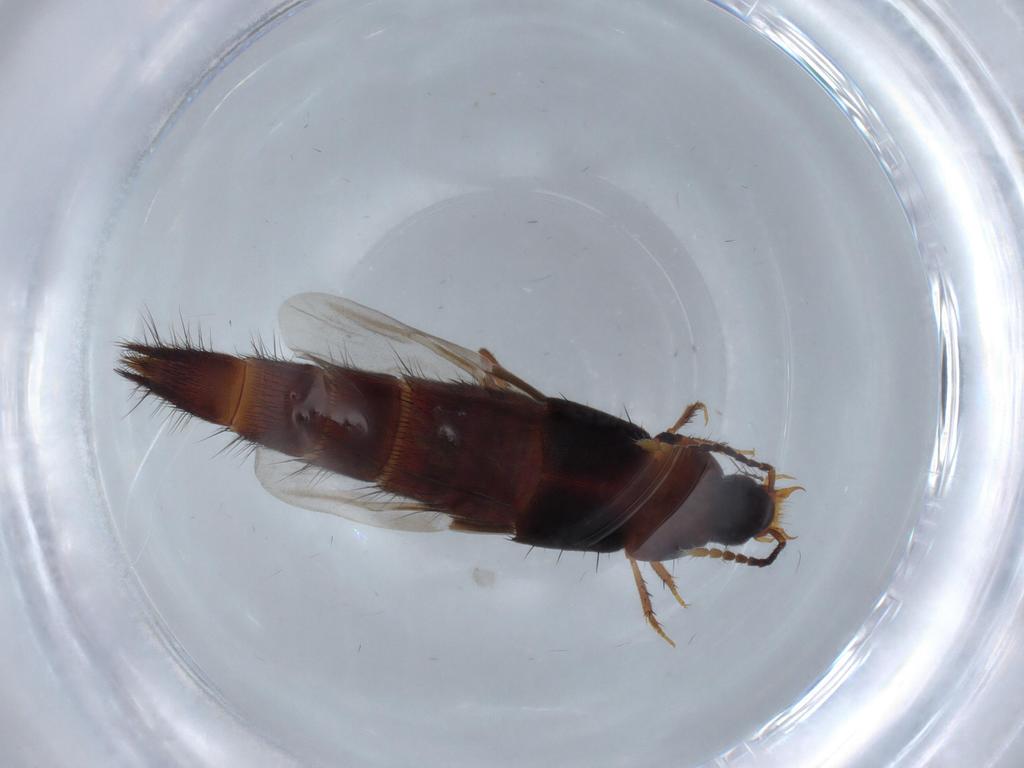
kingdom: Animalia
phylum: Arthropoda
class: Insecta
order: Coleoptera
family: Staphylinidae
